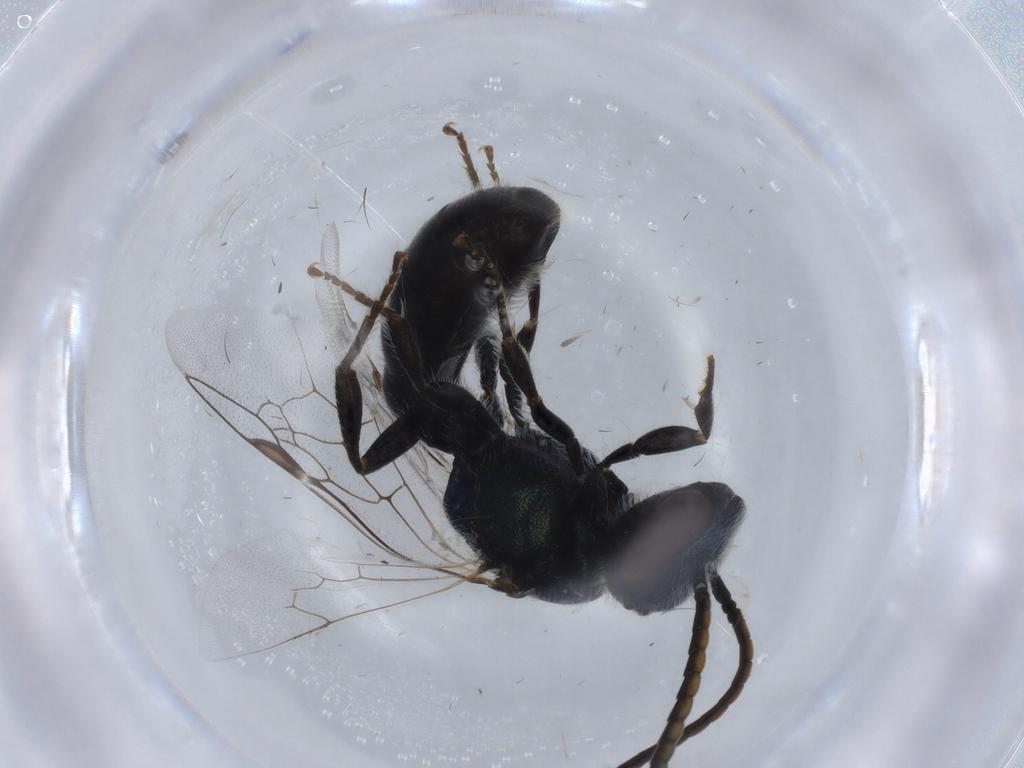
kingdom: Animalia
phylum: Arthropoda
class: Insecta
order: Hymenoptera
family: Halictidae
